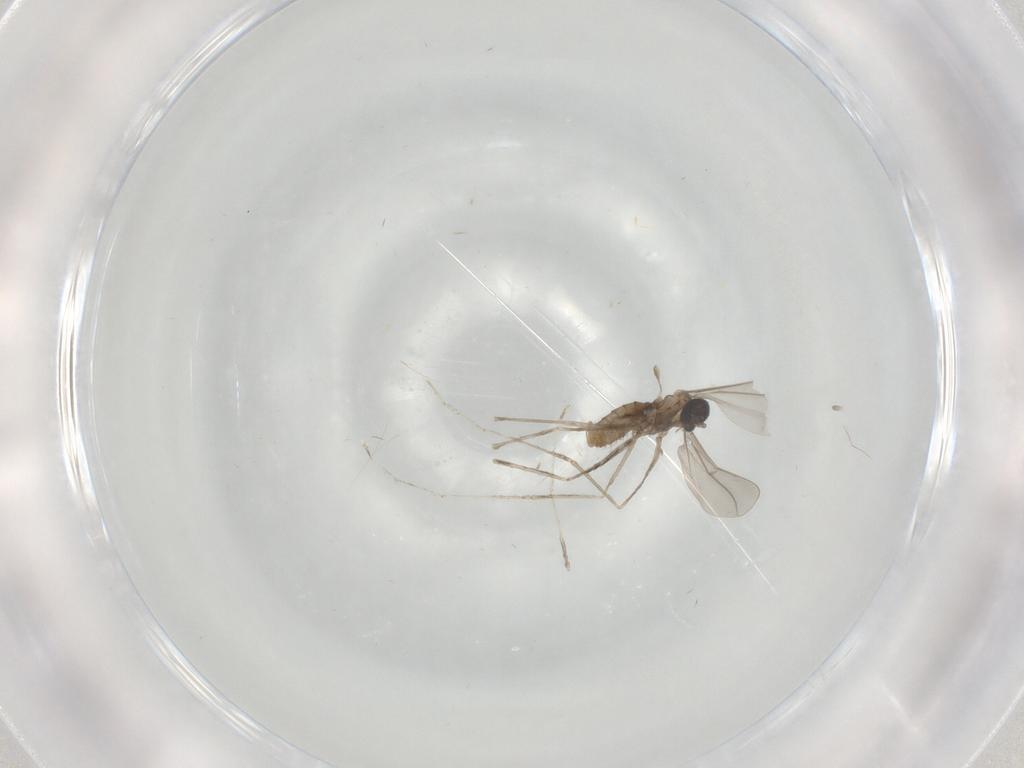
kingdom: Animalia
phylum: Arthropoda
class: Insecta
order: Diptera
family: Cecidomyiidae
